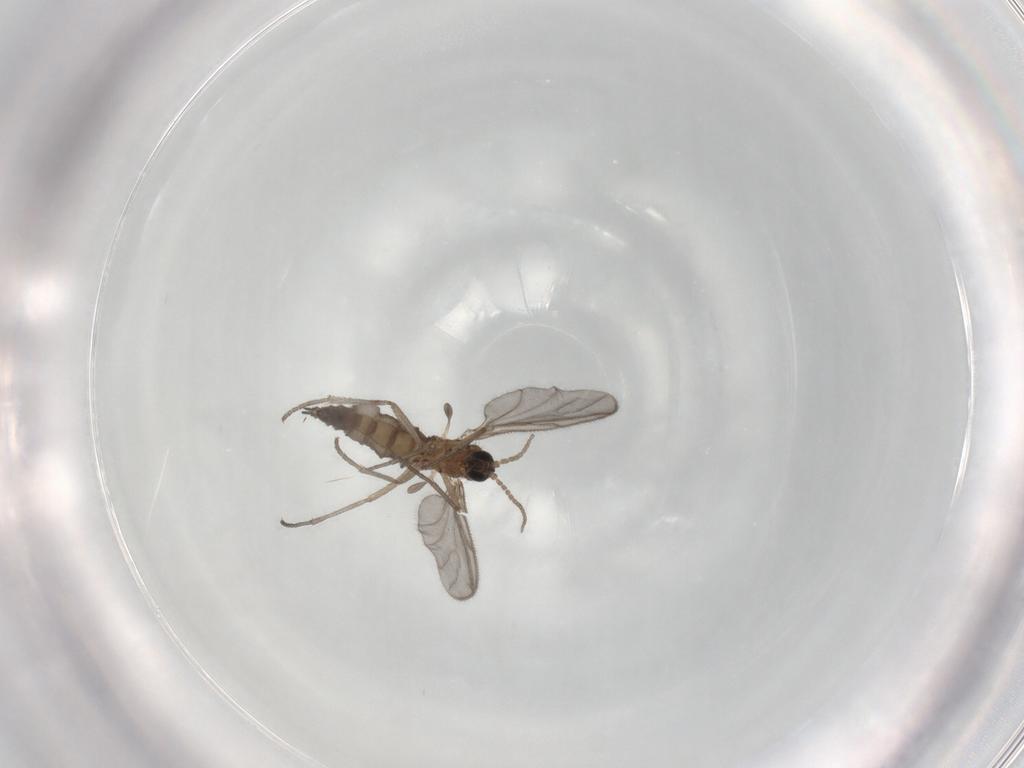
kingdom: Animalia
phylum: Arthropoda
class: Insecta
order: Diptera
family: Sciaridae
